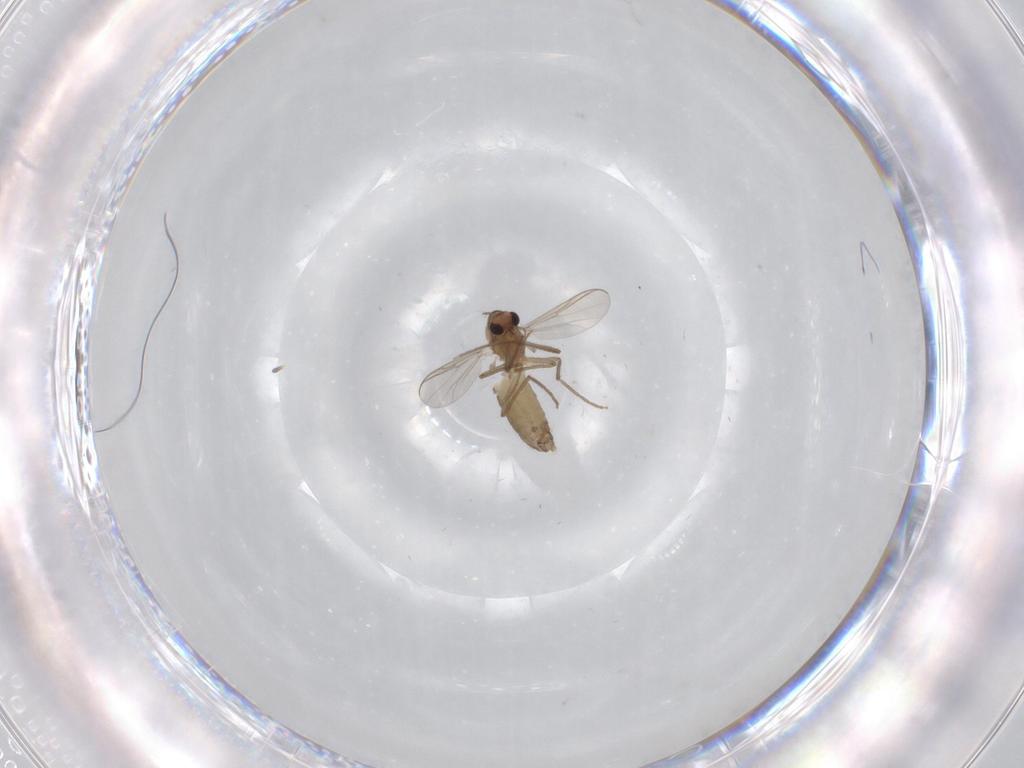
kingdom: Animalia
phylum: Arthropoda
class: Insecta
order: Diptera
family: Chironomidae
